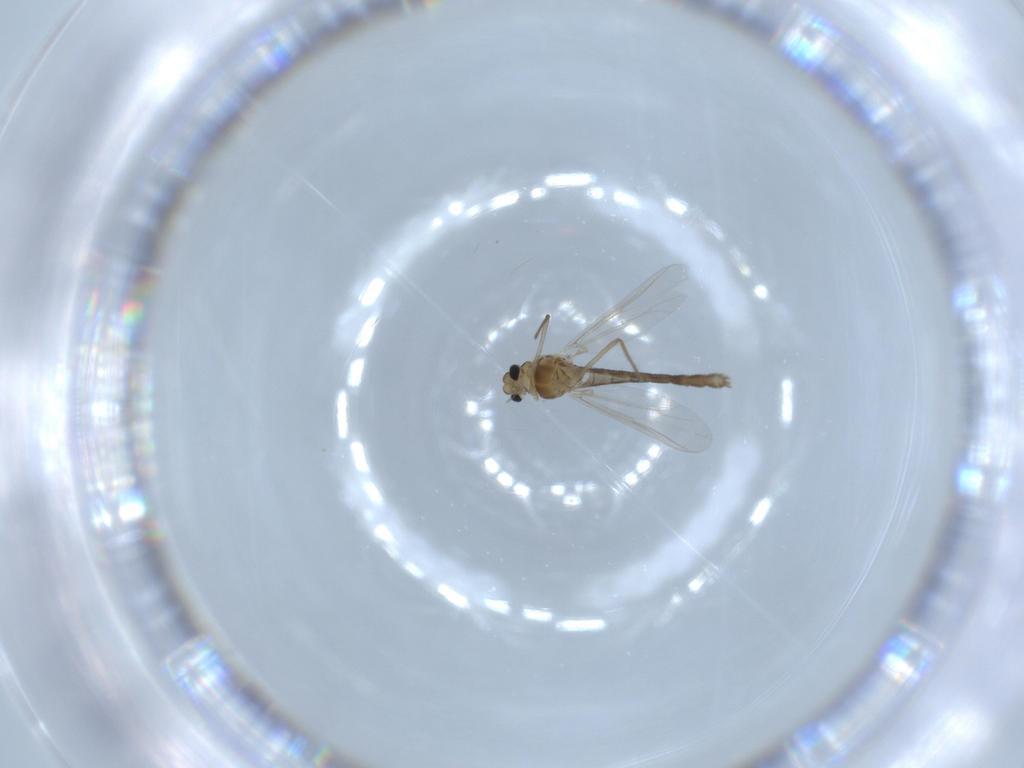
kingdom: Animalia
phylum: Arthropoda
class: Insecta
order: Diptera
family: Chironomidae
